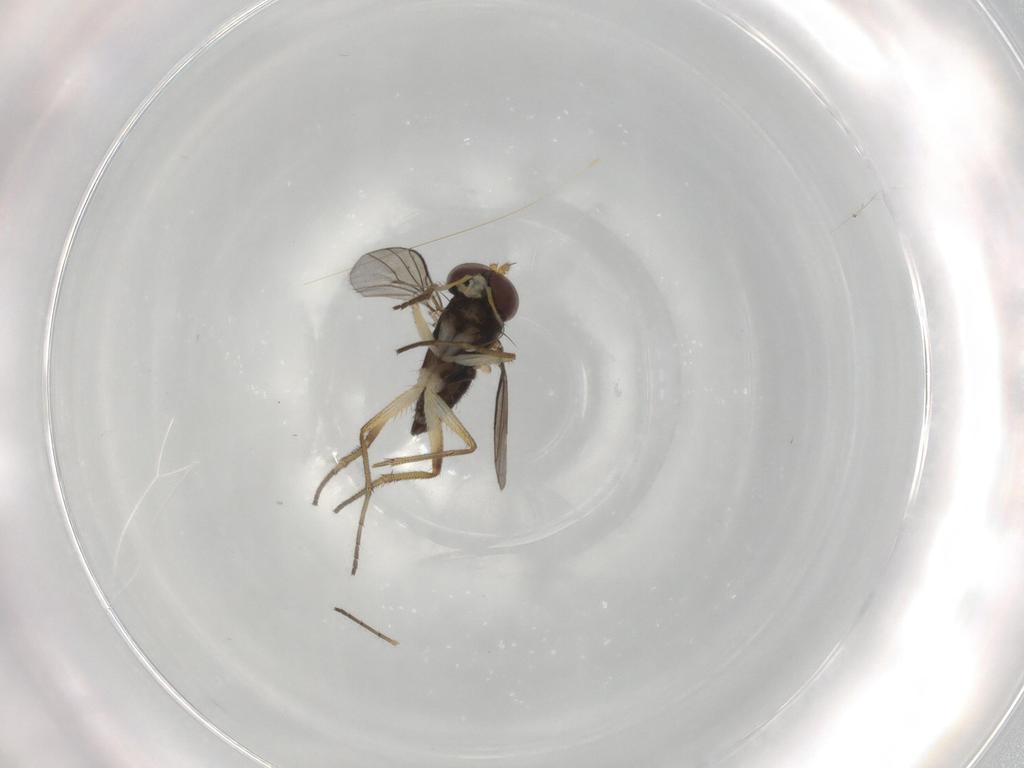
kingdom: Animalia
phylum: Arthropoda
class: Insecta
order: Diptera
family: Dolichopodidae
